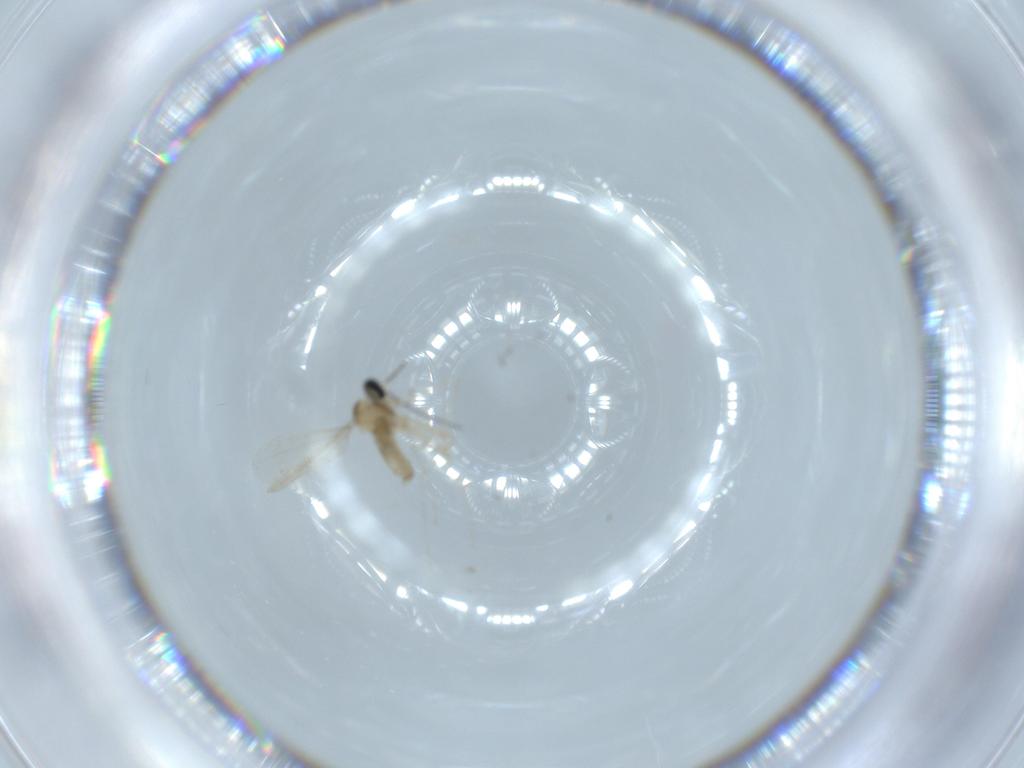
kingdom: Animalia
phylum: Arthropoda
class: Insecta
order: Diptera
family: Cecidomyiidae
